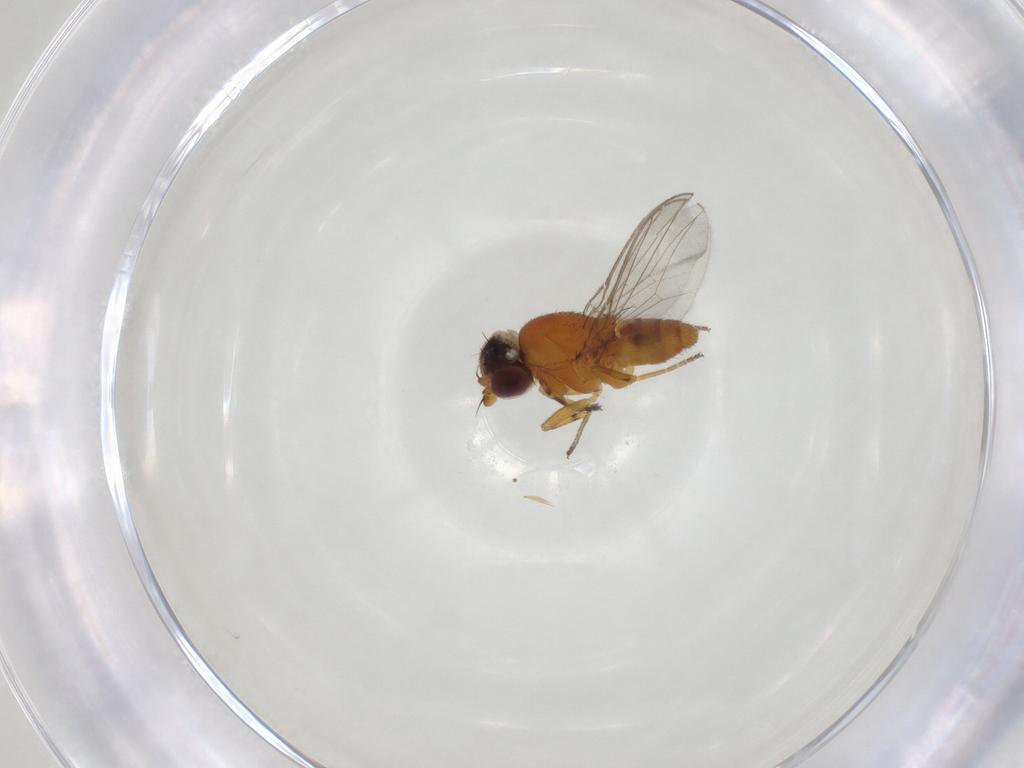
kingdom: Animalia
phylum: Arthropoda
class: Insecta
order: Diptera
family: Chloropidae
